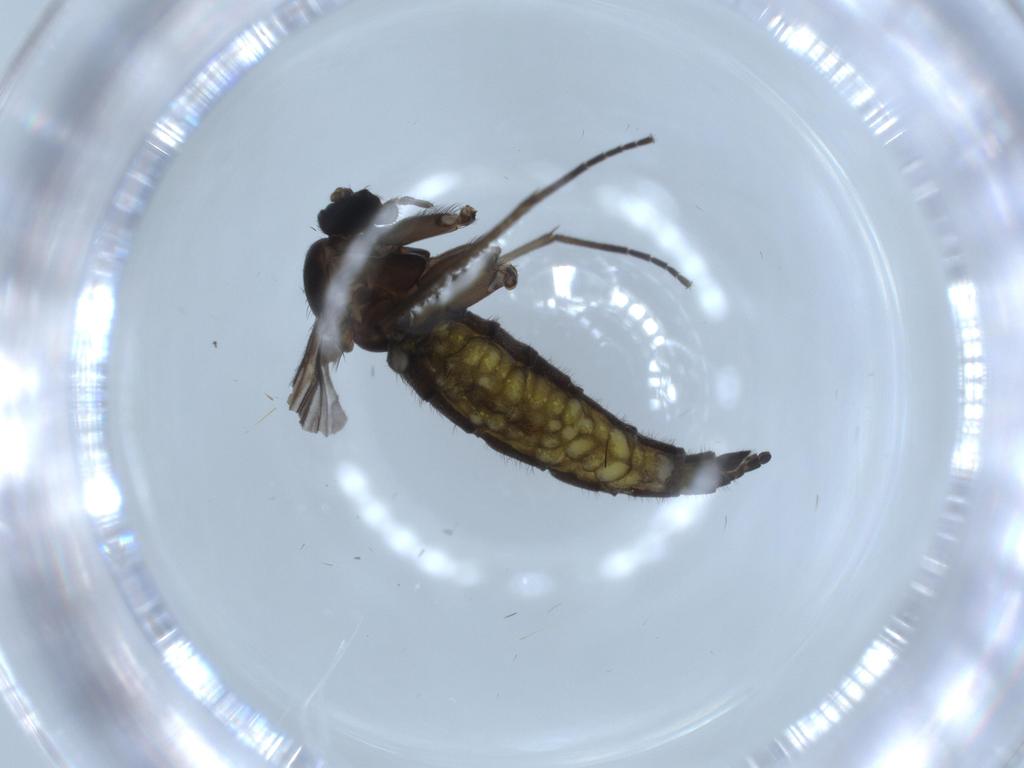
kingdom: Animalia
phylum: Arthropoda
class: Insecta
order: Diptera
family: Sciaridae
